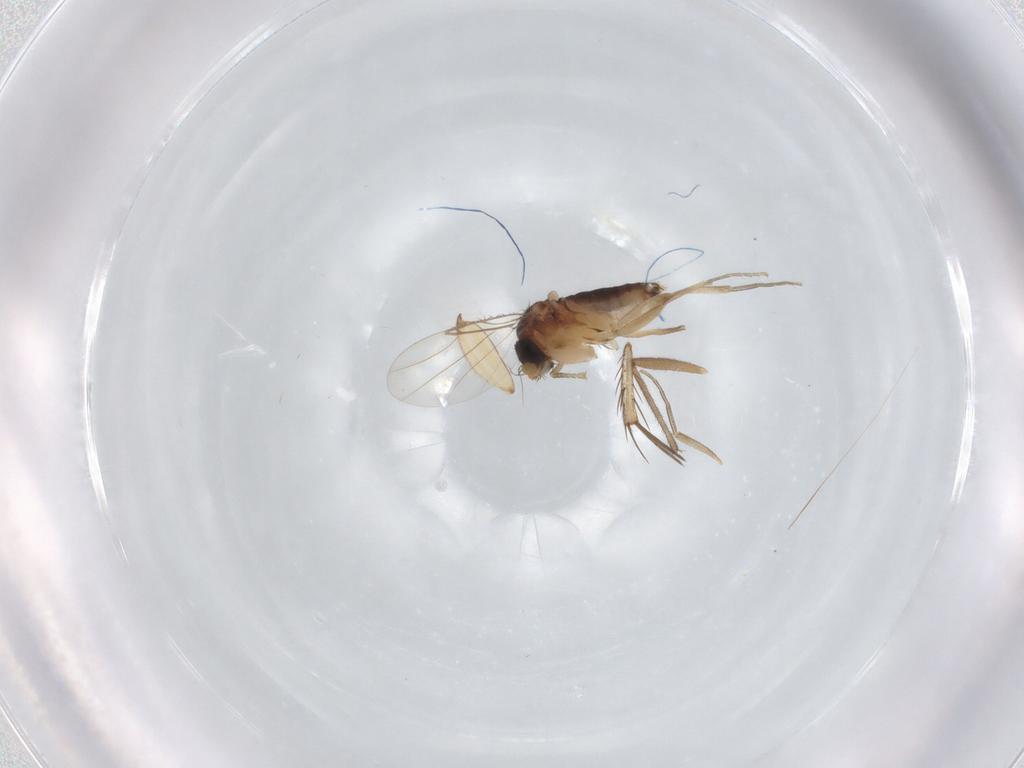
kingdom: Animalia
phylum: Arthropoda
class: Insecta
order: Diptera
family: Phoridae
